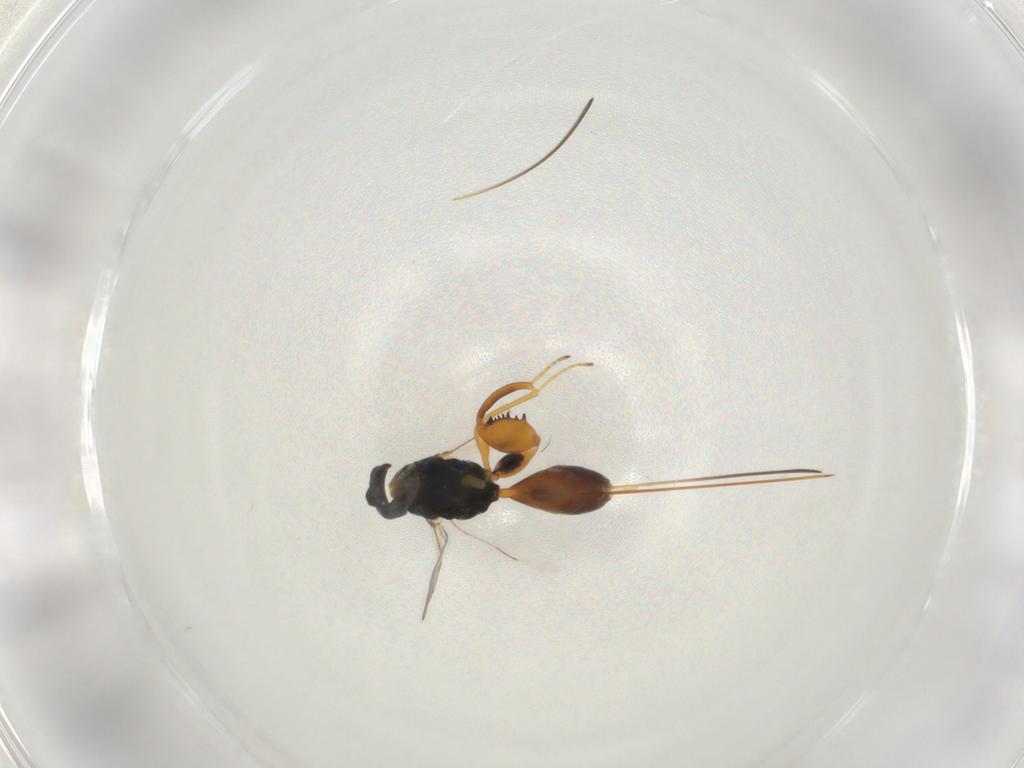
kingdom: Animalia
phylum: Arthropoda
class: Insecta
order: Hymenoptera
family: Torymidae
